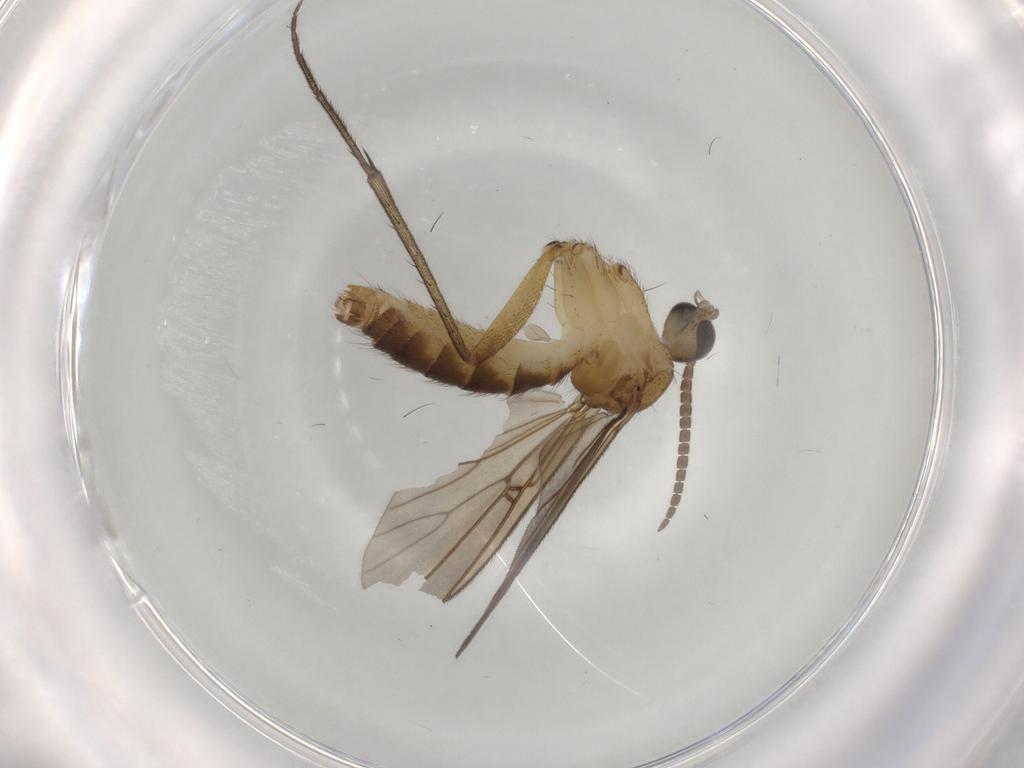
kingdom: Animalia
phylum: Arthropoda
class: Insecta
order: Diptera
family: Mycetophilidae
